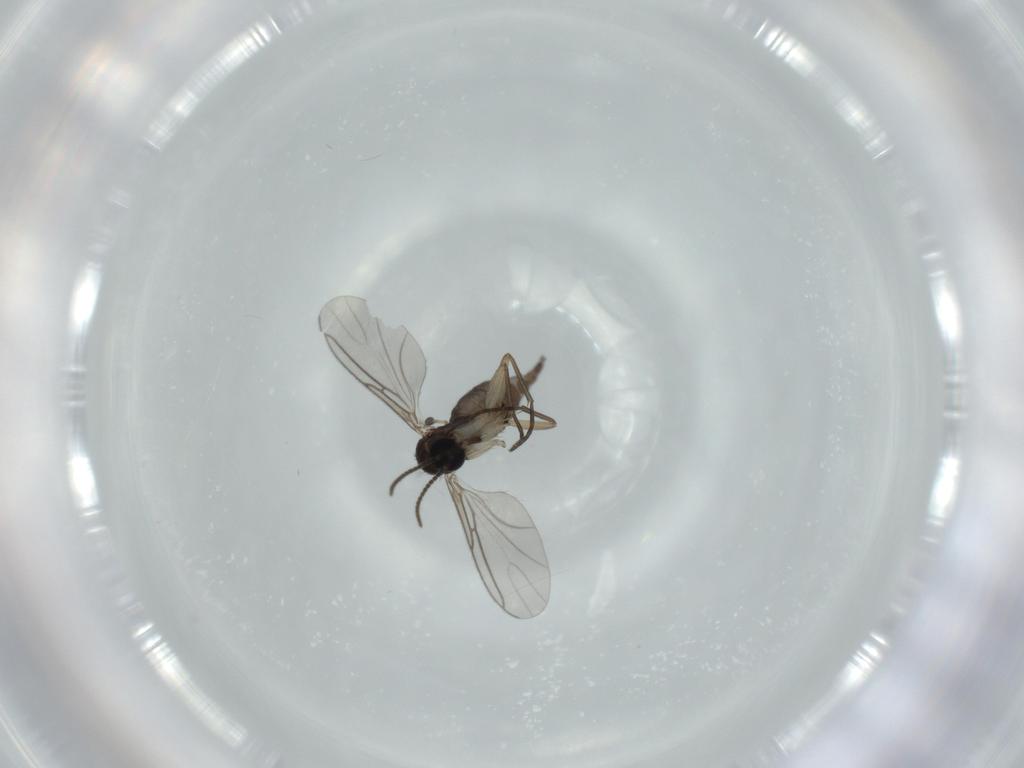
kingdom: Animalia
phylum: Arthropoda
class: Insecta
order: Diptera
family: Sciaridae
